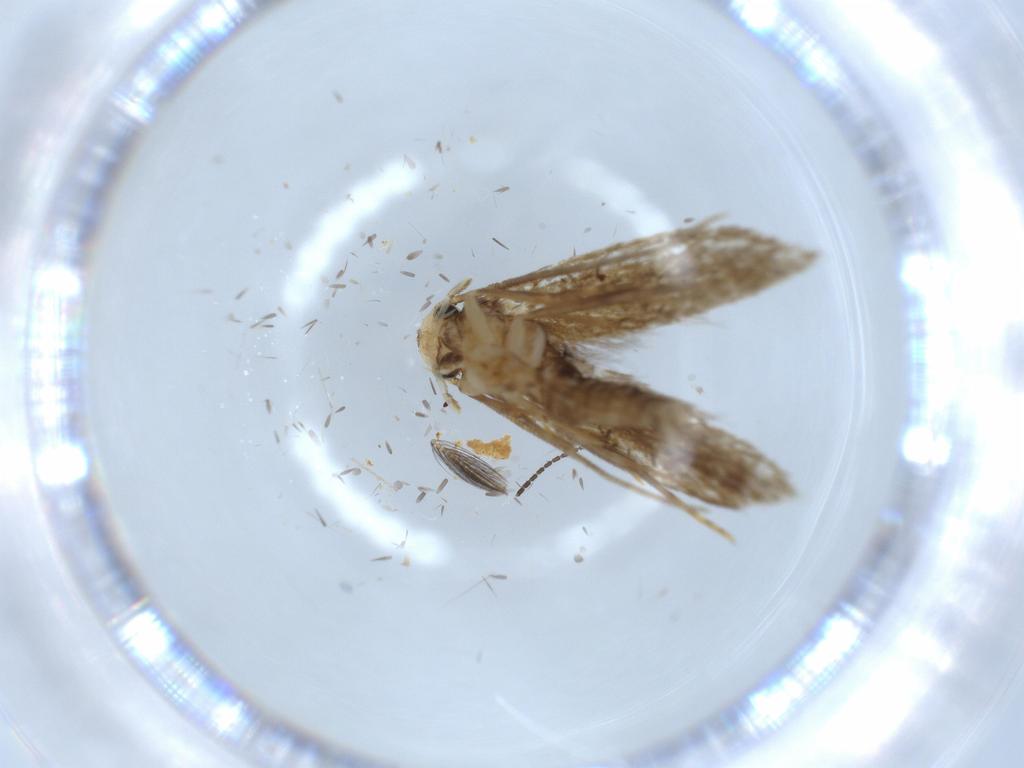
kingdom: Animalia
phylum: Arthropoda
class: Insecta
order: Lepidoptera
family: Tineidae
